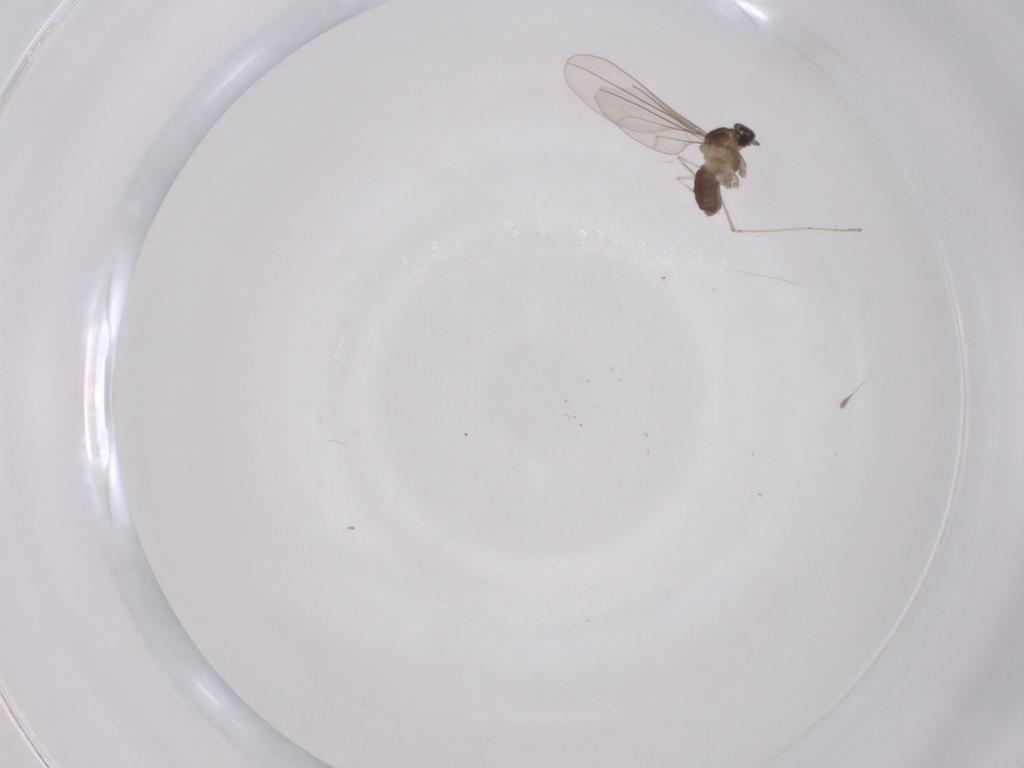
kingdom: Animalia
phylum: Arthropoda
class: Insecta
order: Diptera
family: Cecidomyiidae
